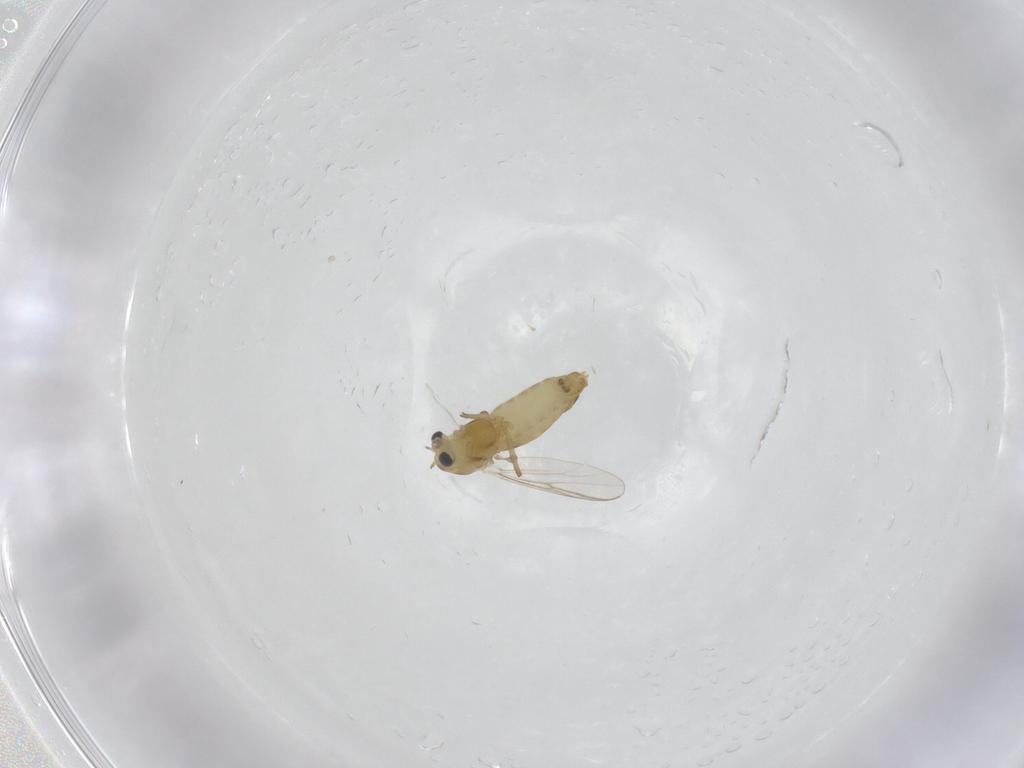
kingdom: Animalia
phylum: Arthropoda
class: Insecta
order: Diptera
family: Chironomidae
